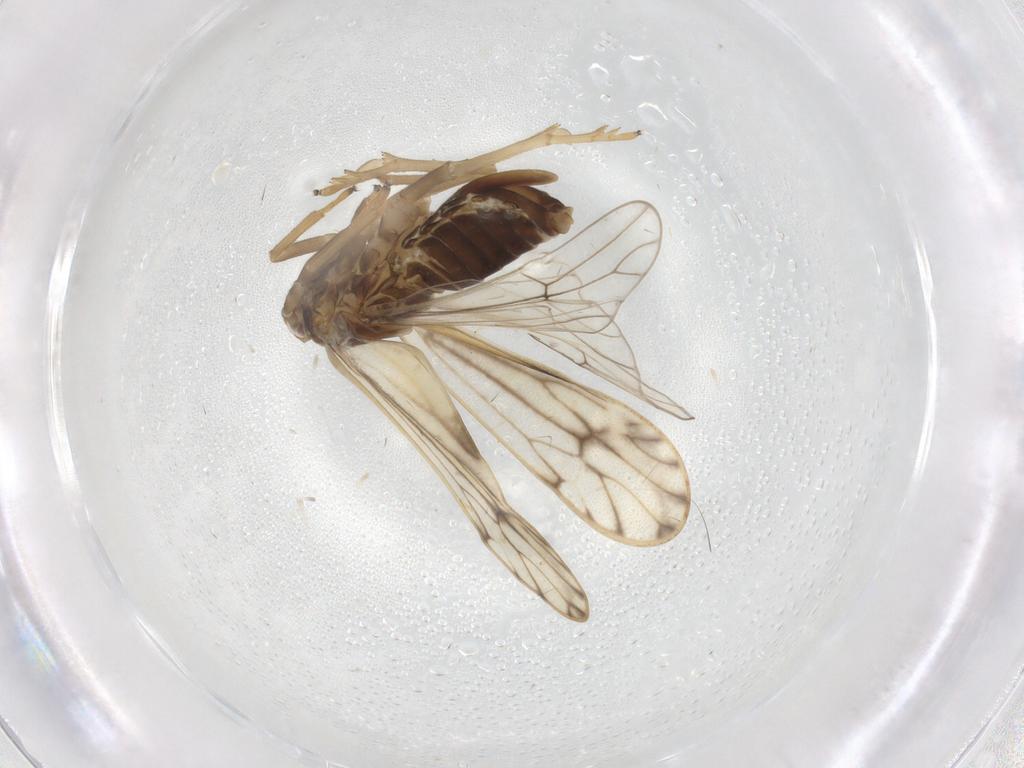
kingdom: Animalia
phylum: Arthropoda
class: Insecta
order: Hemiptera
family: Delphacidae
